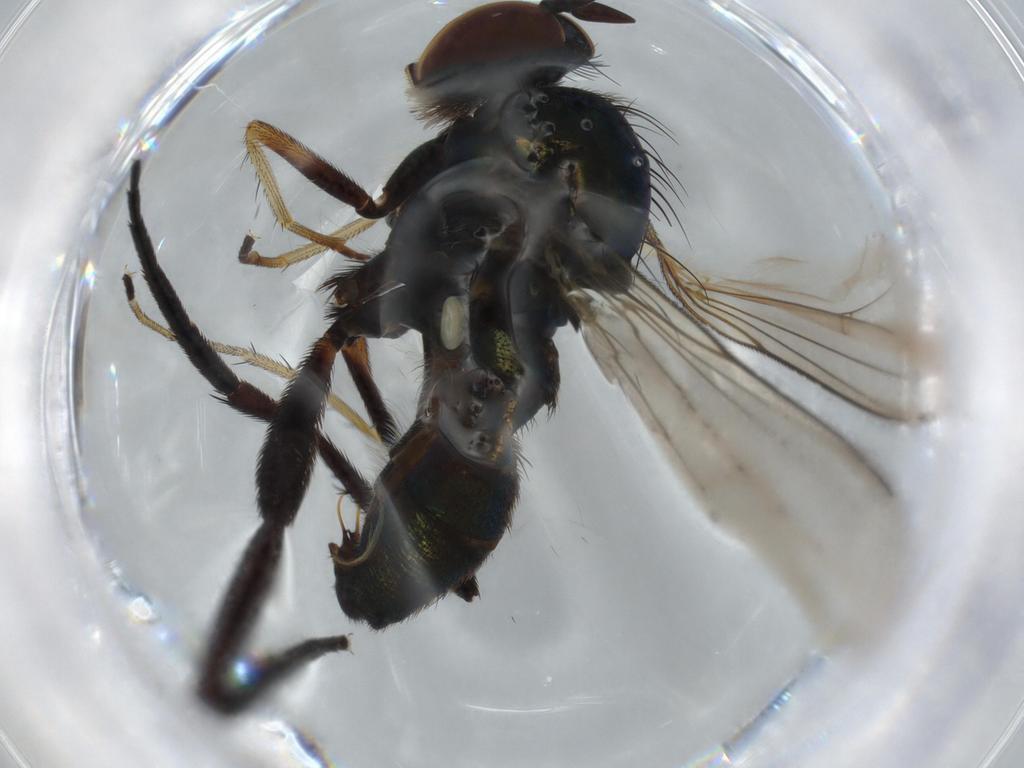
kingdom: Animalia
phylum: Arthropoda
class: Insecta
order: Diptera
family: Dolichopodidae
